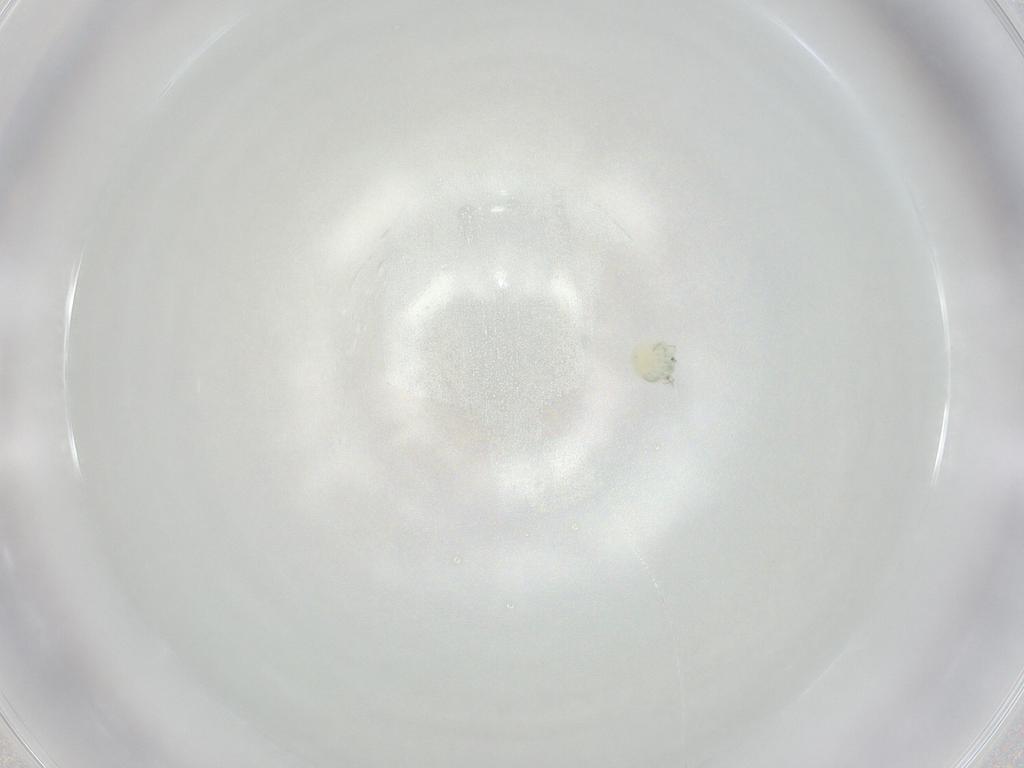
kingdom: Animalia
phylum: Arthropoda
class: Arachnida
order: Trombidiformes
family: Arrenuridae
